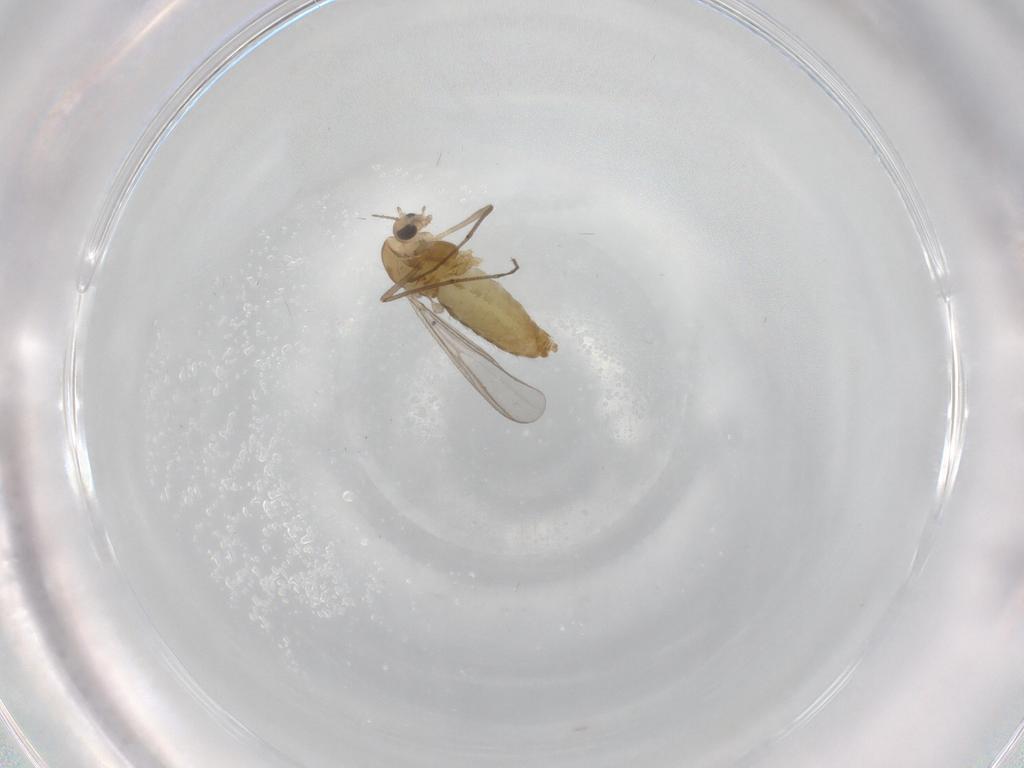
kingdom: Animalia
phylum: Arthropoda
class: Insecta
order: Diptera
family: Chironomidae
